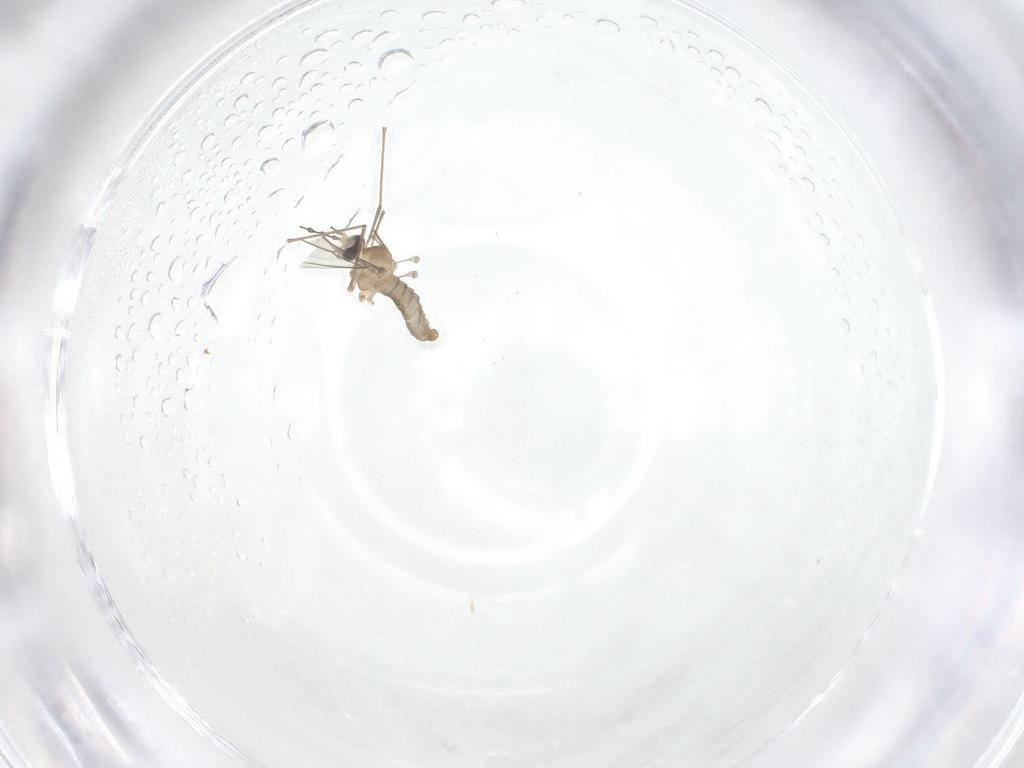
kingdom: Animalia
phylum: Arthropoda
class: Insecta
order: Diptera
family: Cecidomyiidae
